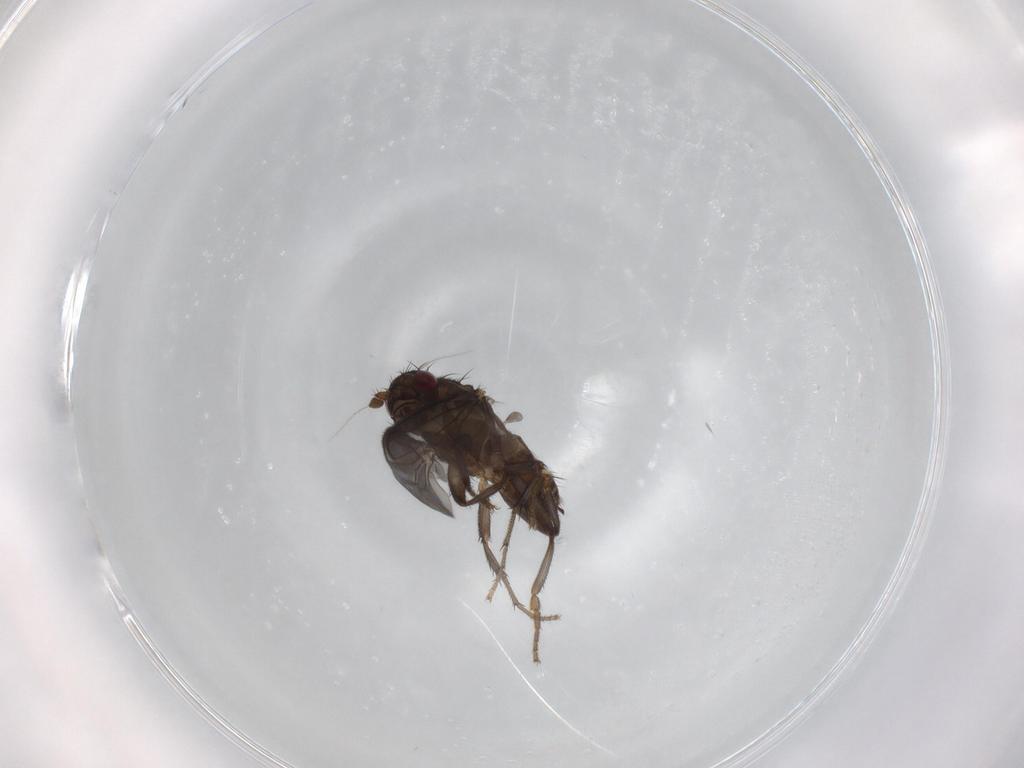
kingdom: Animalia
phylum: Arthropoda
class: Insecta
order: Diptera
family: Sphaeroceridae
